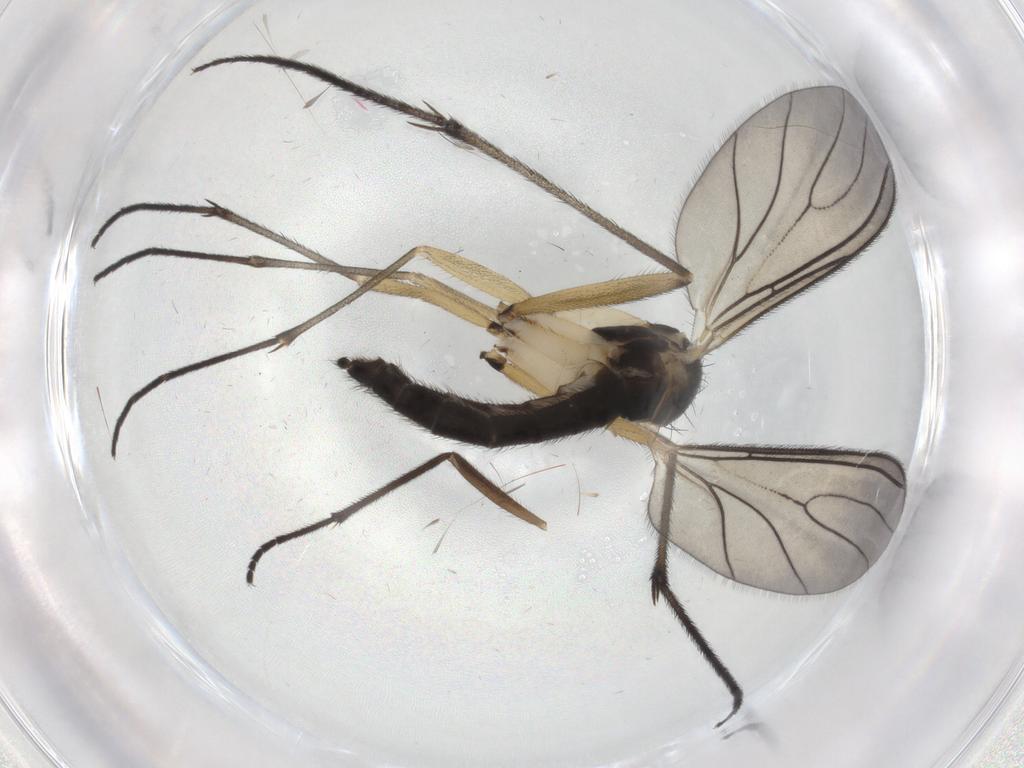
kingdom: Animalia
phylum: Arthropoda
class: Insecta
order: Diptera
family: Sciaridae
